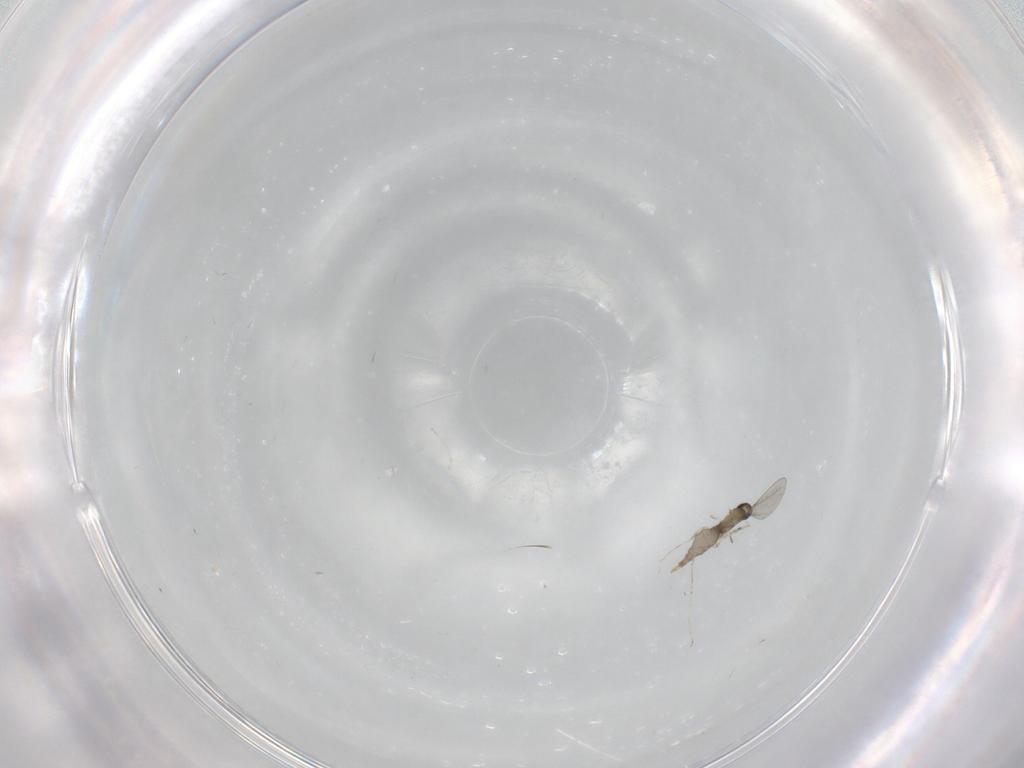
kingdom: Animalia
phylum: Arthropoda
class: Insecta
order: Diptera
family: Mycetophilidae
